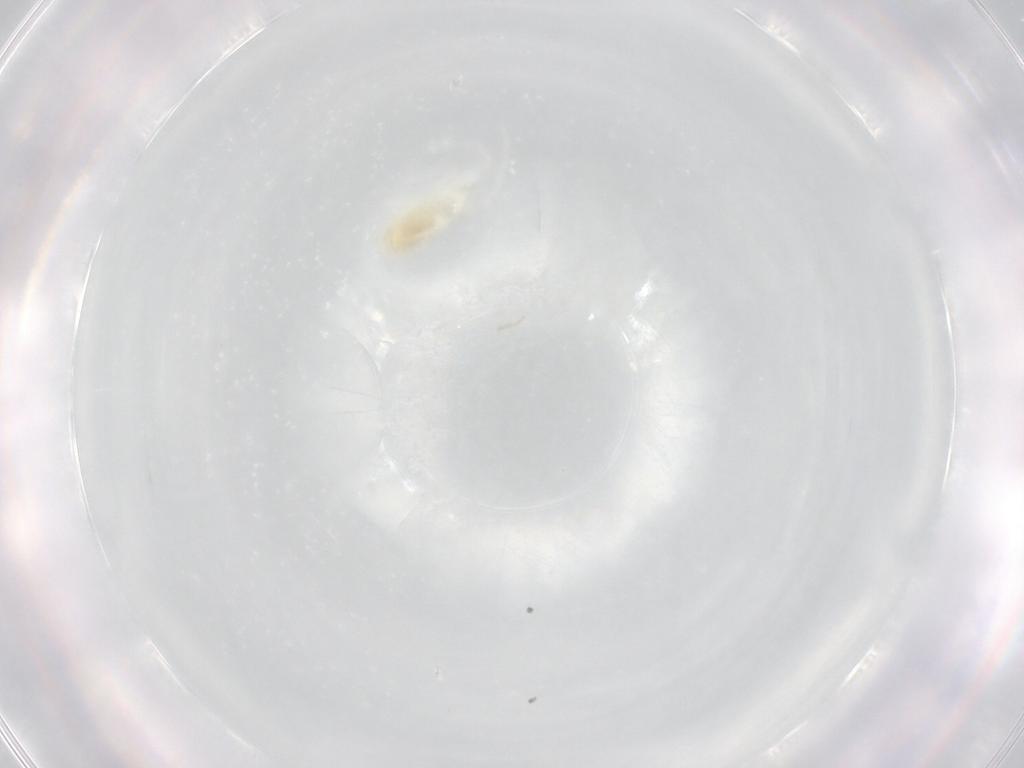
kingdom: Animalia
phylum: Arthropoda
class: Arachnida
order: Trombidiformes
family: Rhagidiidae
